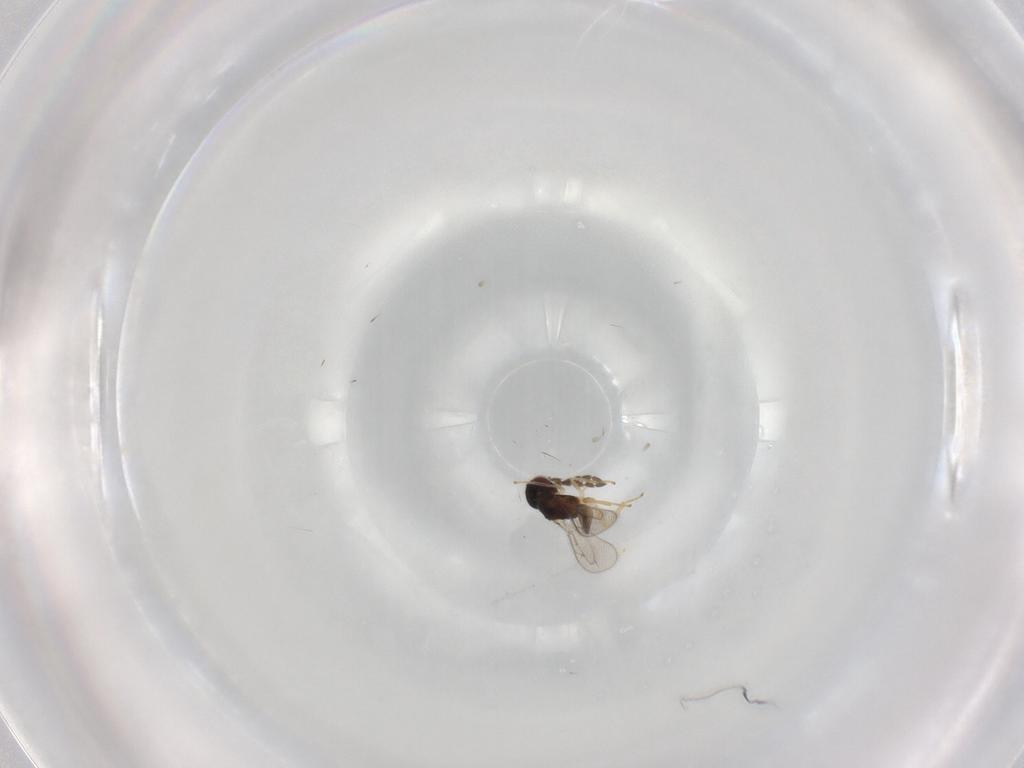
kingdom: Animalia
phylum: Arthropoda
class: Insecta
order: Hymenoptera
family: Eulophidae
